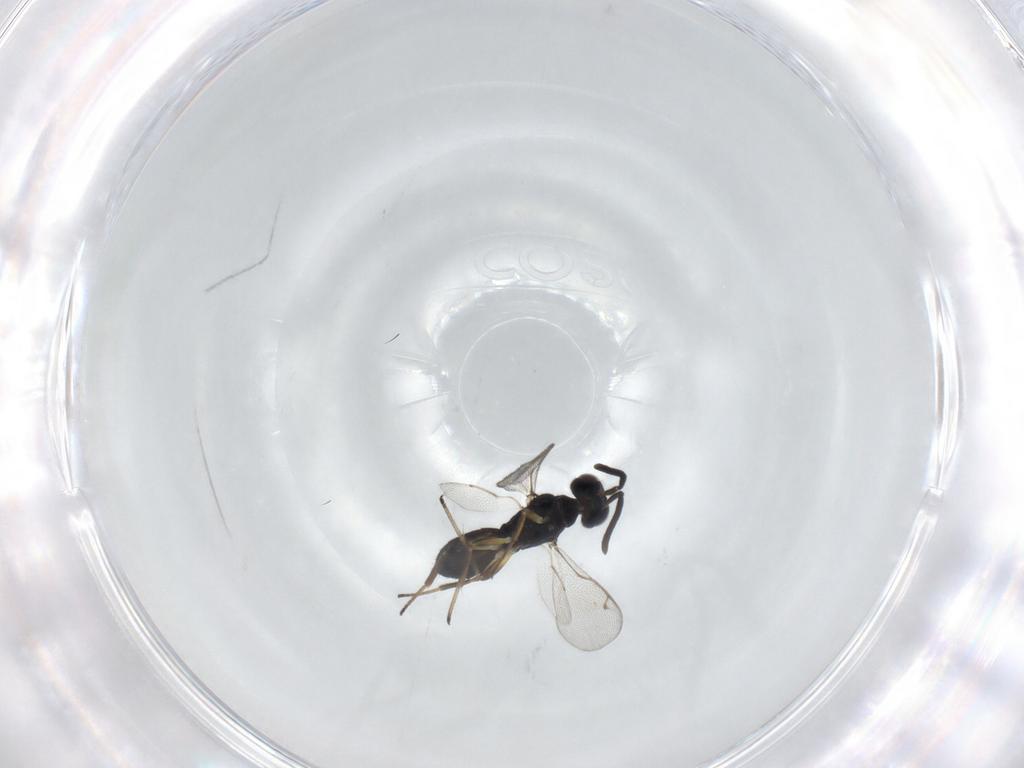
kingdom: Animalia
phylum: Arthropoda
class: Insecta
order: Hymenoptera
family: Eupelmidae
